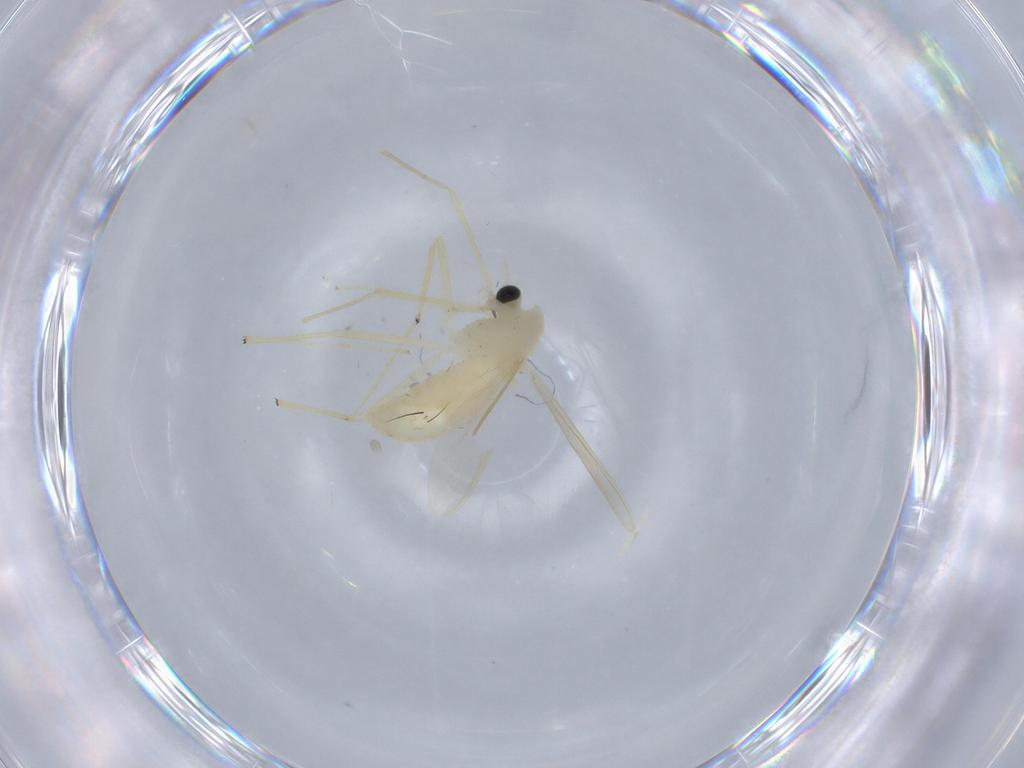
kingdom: Animalia
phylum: Arthropoda
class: Insecta
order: Diptera
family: Chironomidae
